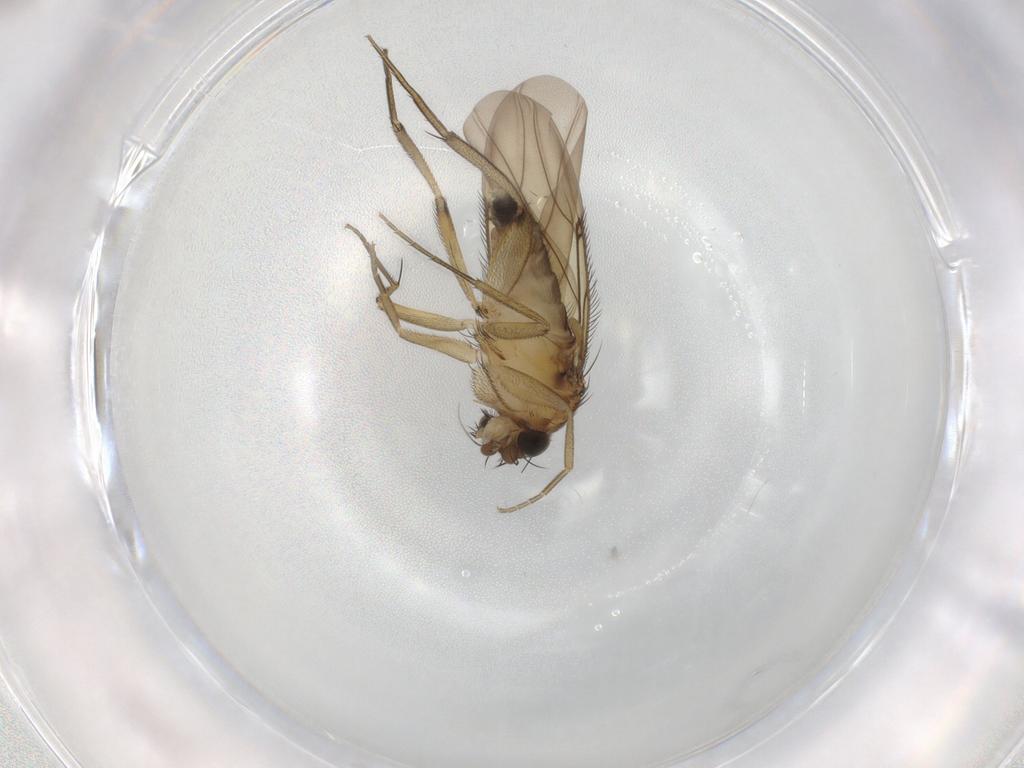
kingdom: Animalia
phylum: Arthropoda
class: Insecta
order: Diptera
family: Phoridae
